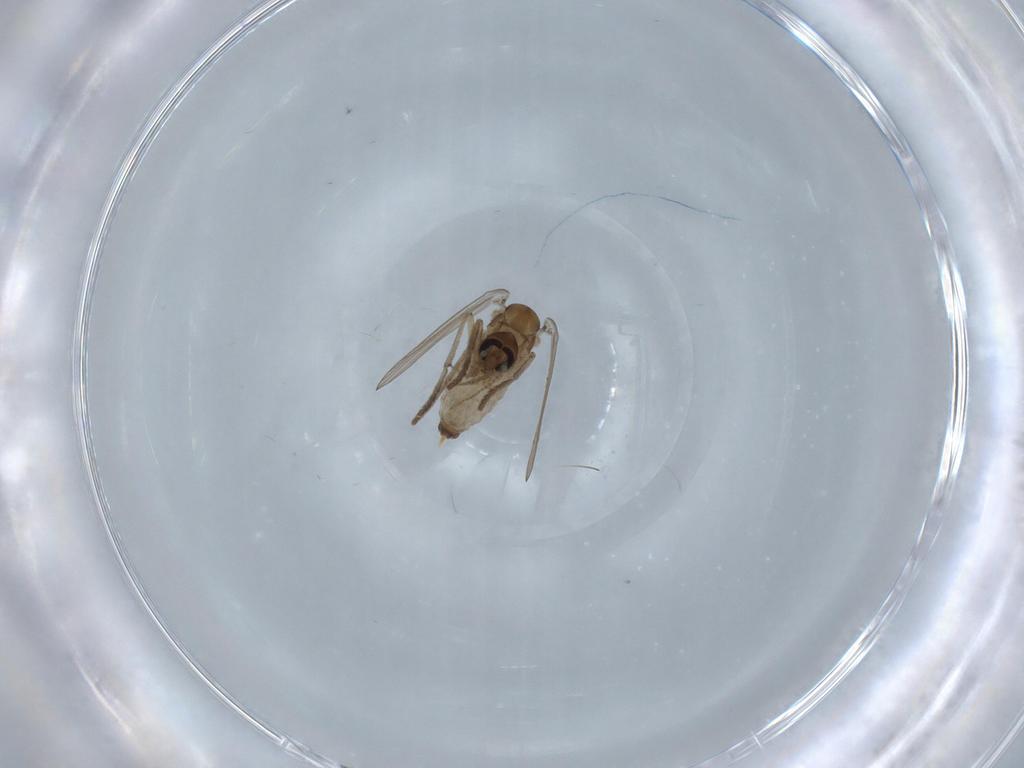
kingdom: Animalia
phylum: Arthropoda
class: Insecta
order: Diptera
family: Psychodidae
